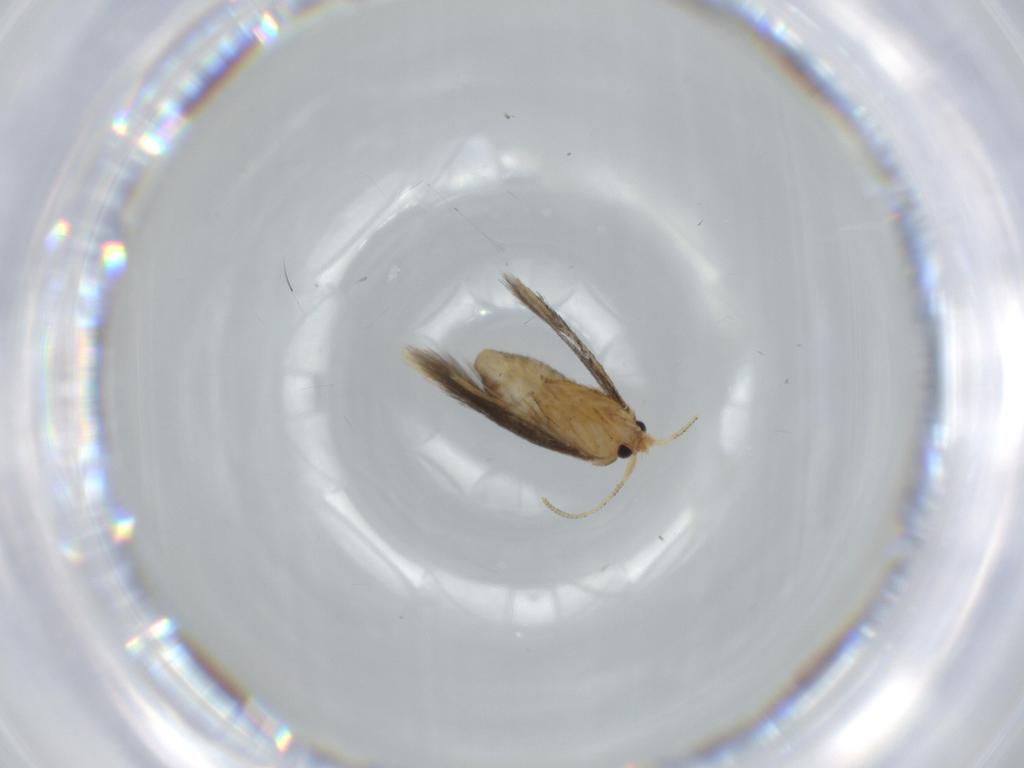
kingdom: Animalia
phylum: Arthropoda
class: Insecta
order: Lepidoptera
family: Nepticulidae
